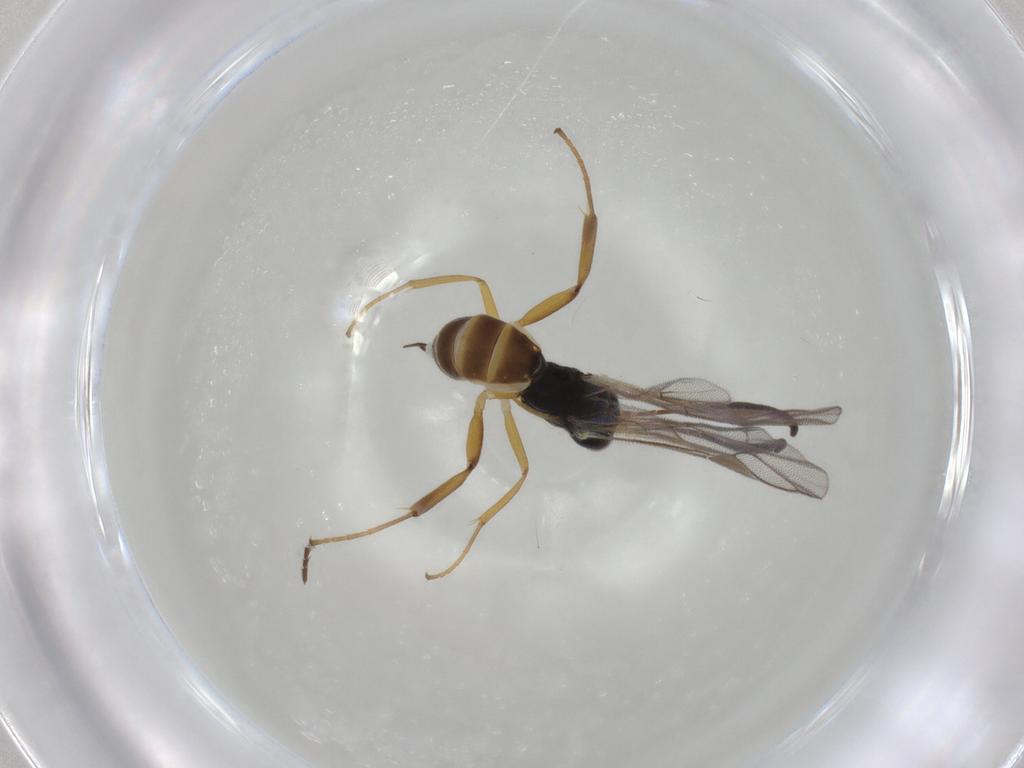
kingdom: Animalia
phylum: Arthropoda
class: Insecta
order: Hymenoptera
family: Ichneumonidae
